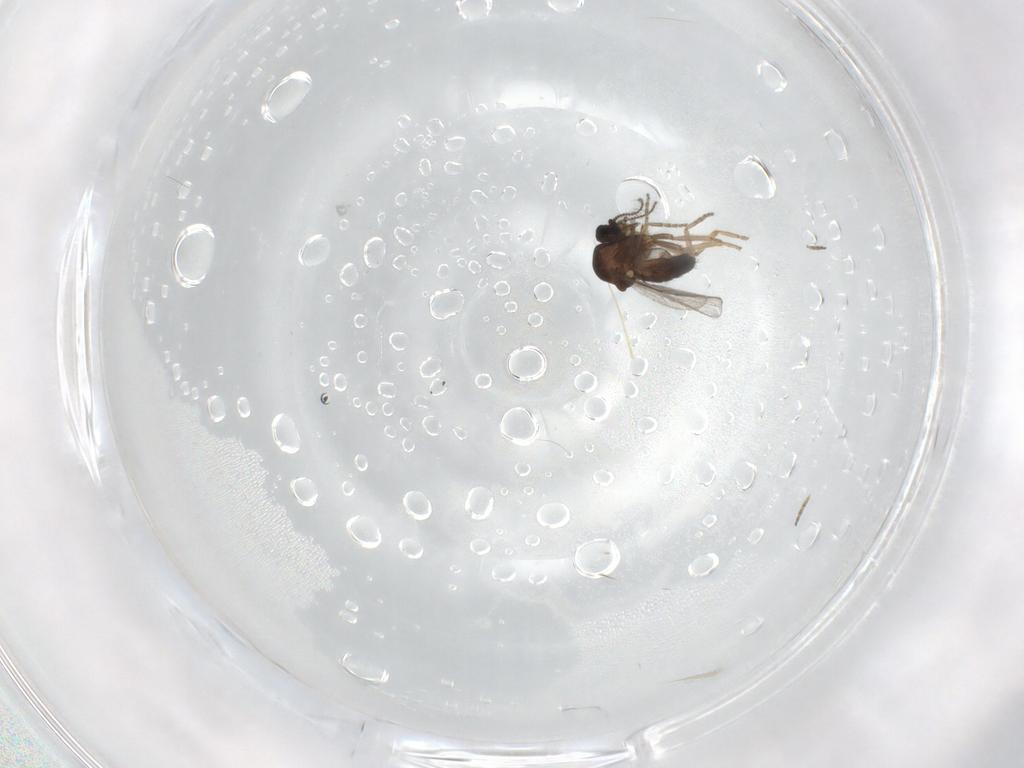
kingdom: Animalia
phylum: Arthropoda
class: Insecta
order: Diptera
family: Ceratopogonidae
